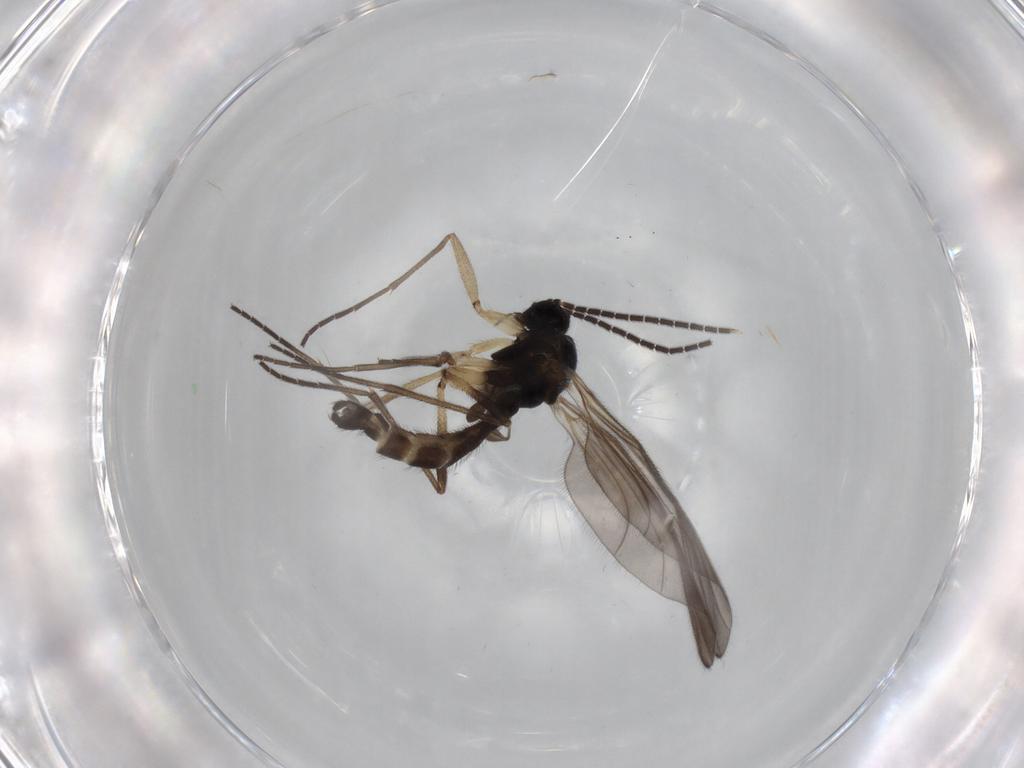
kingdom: Animalia
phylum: Arthropoda
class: Insecta
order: Diptera
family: Sciaridae
